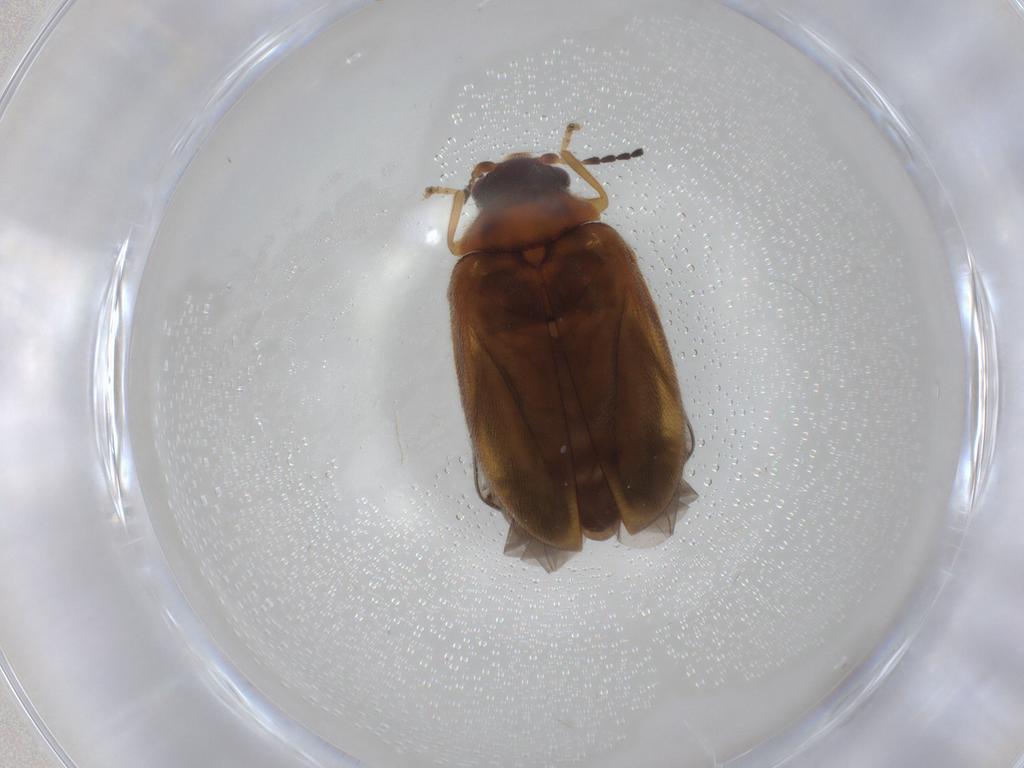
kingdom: Animalia
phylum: Arthropoda
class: Insecta
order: Coleoptera
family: Scirtidae
